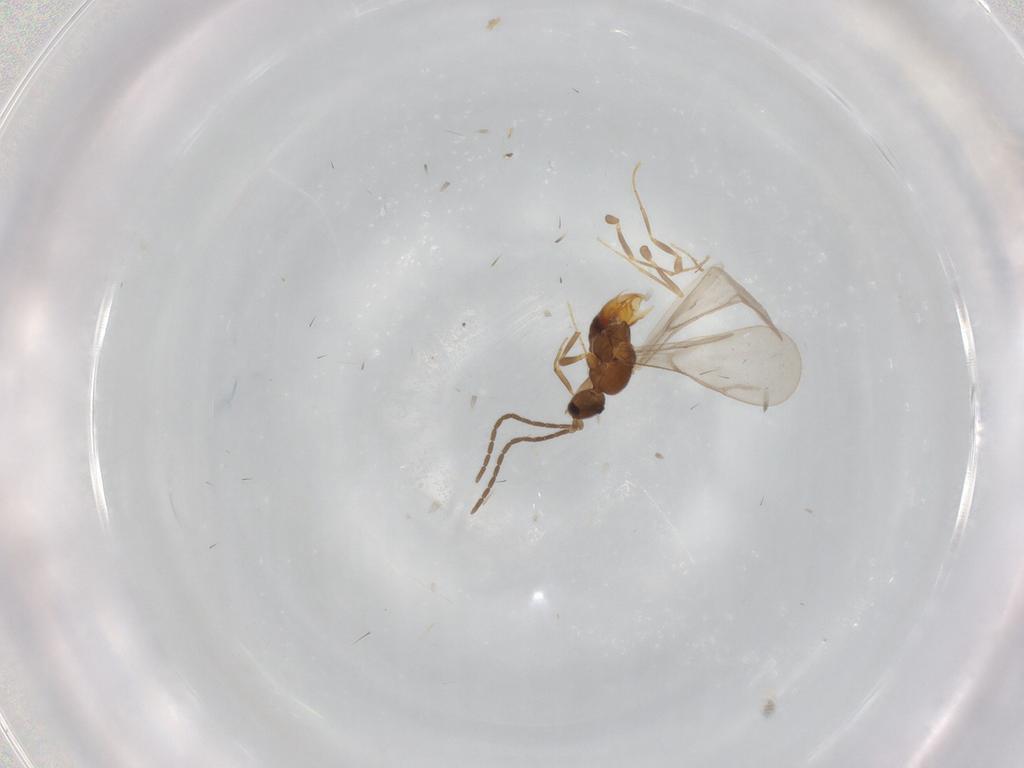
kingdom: Animalia
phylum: Arthropoda
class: Insecta
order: Hymenoptera
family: Formicidae
